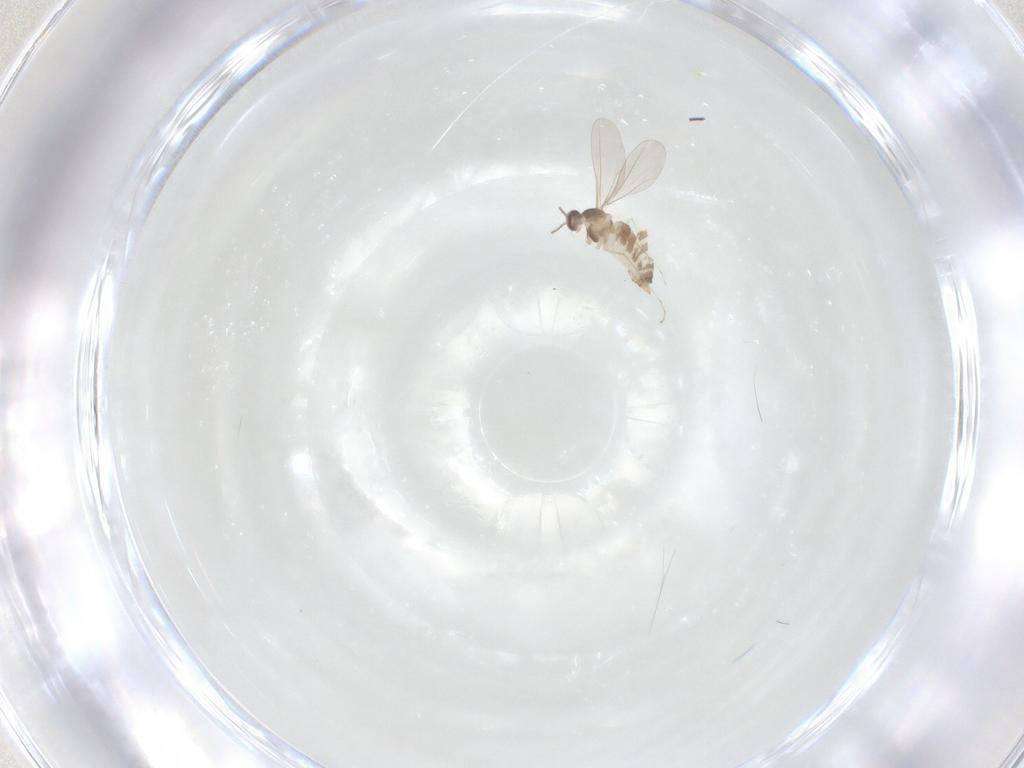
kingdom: Animalia
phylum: Arthropoda
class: Insecta
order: Diptera
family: Cecidomyiidae
